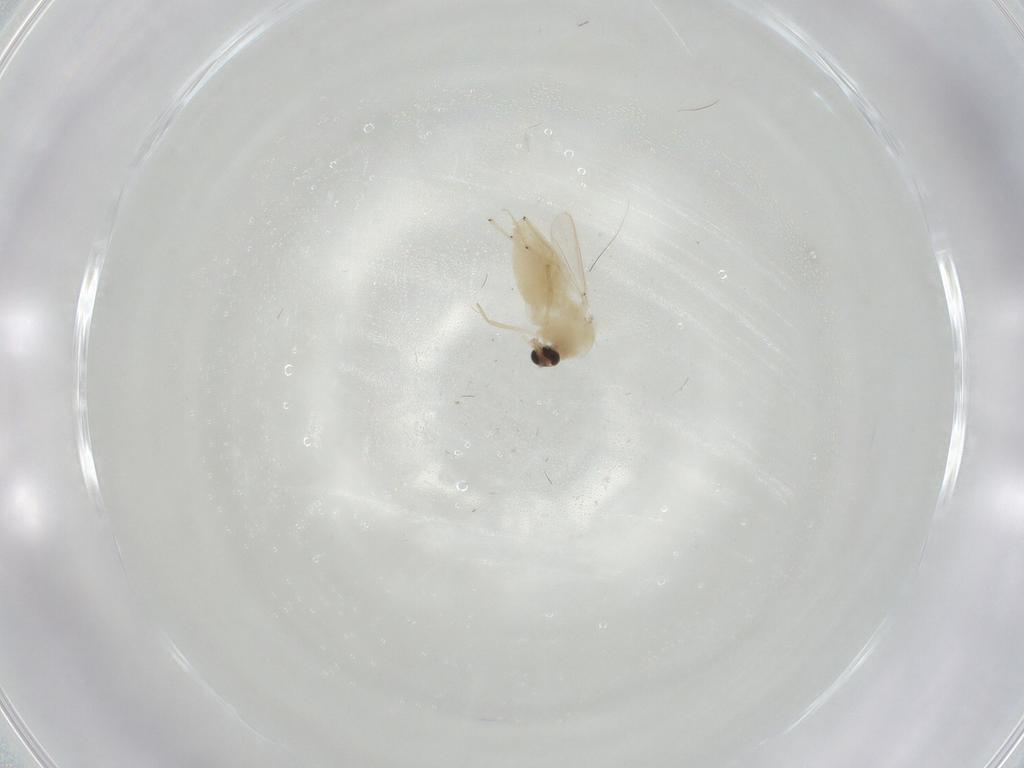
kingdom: Animalia
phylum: Arthropoda
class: Insecta
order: Diptera
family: Chironomidae
